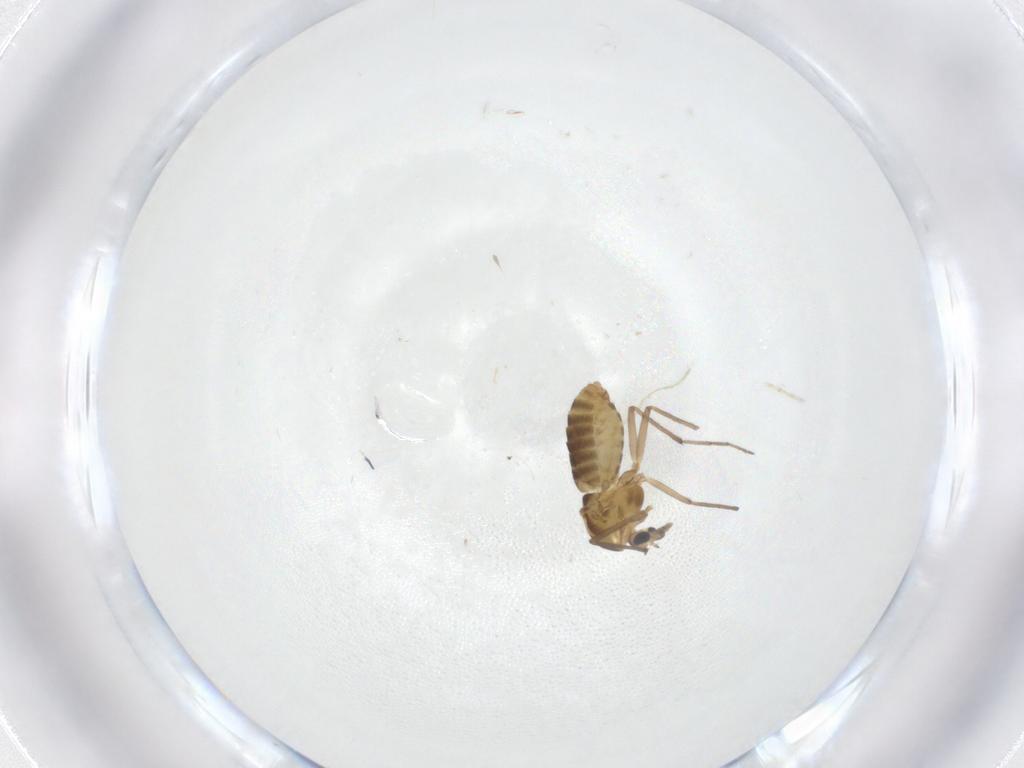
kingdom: Animalia
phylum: Arthropoda
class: Insecta
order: Diptera
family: Chironomidae
